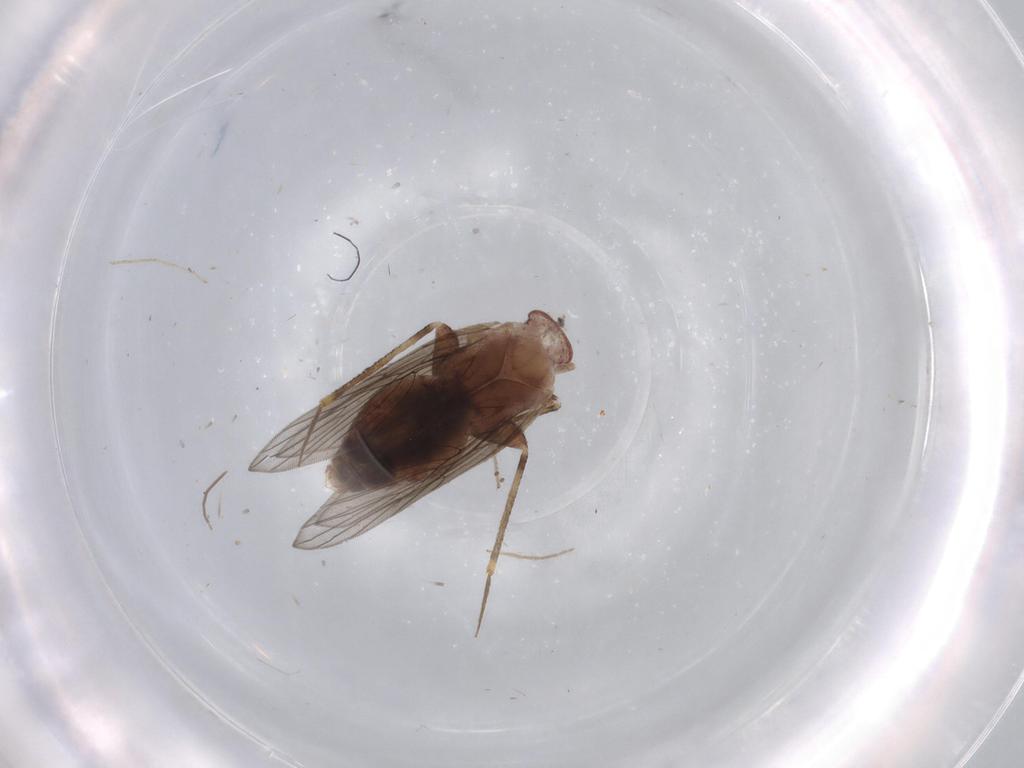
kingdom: Animalia
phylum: Arthropoda
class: Insecta
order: Psocodea
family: Lepidopsocidae
